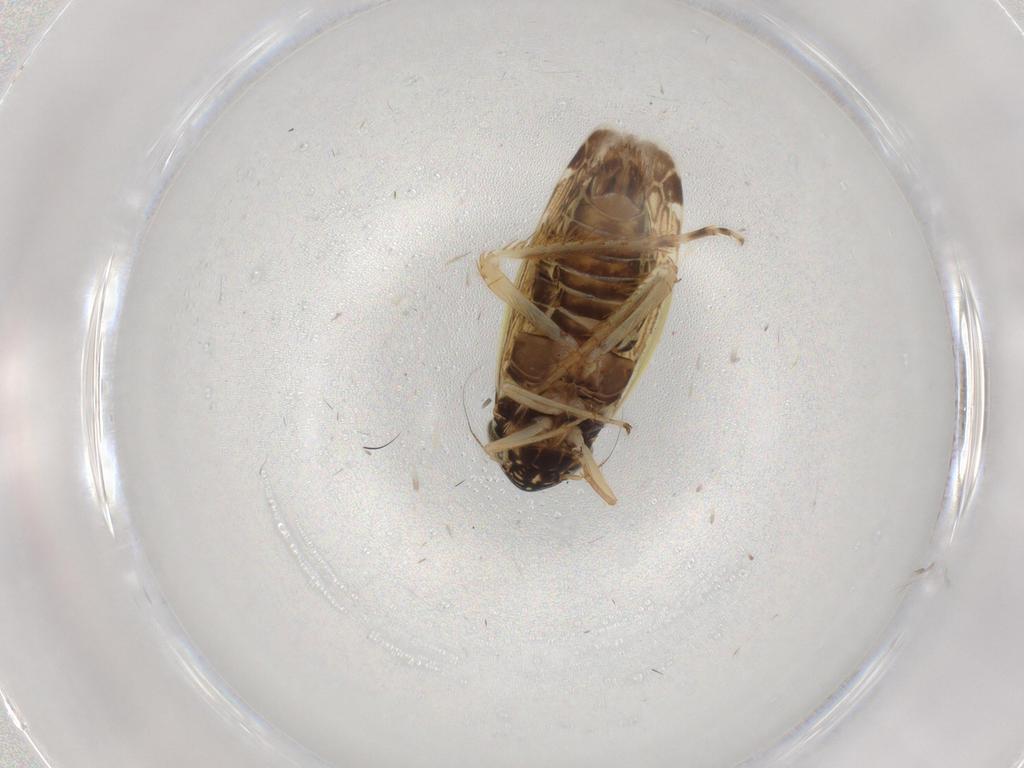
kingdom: Animalia
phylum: Arthropoda
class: Insecta
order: Hemiptera
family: Cicadellidae
